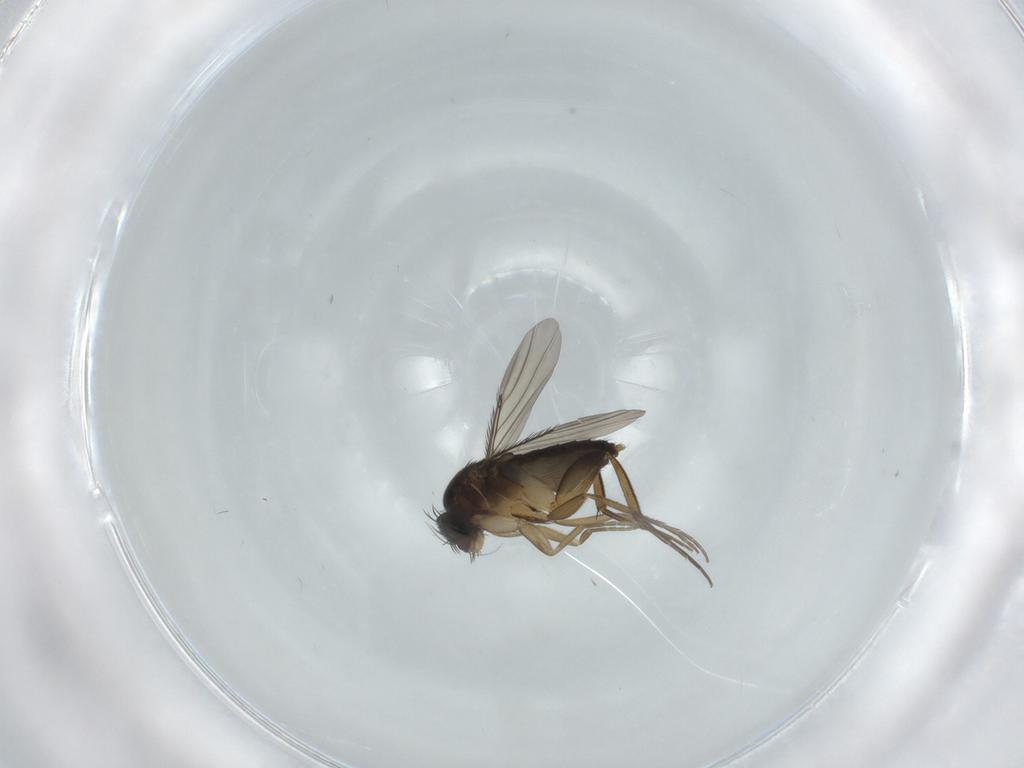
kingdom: Animalia
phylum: Arthropoda
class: Insecta
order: Diptera
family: Phoridae
